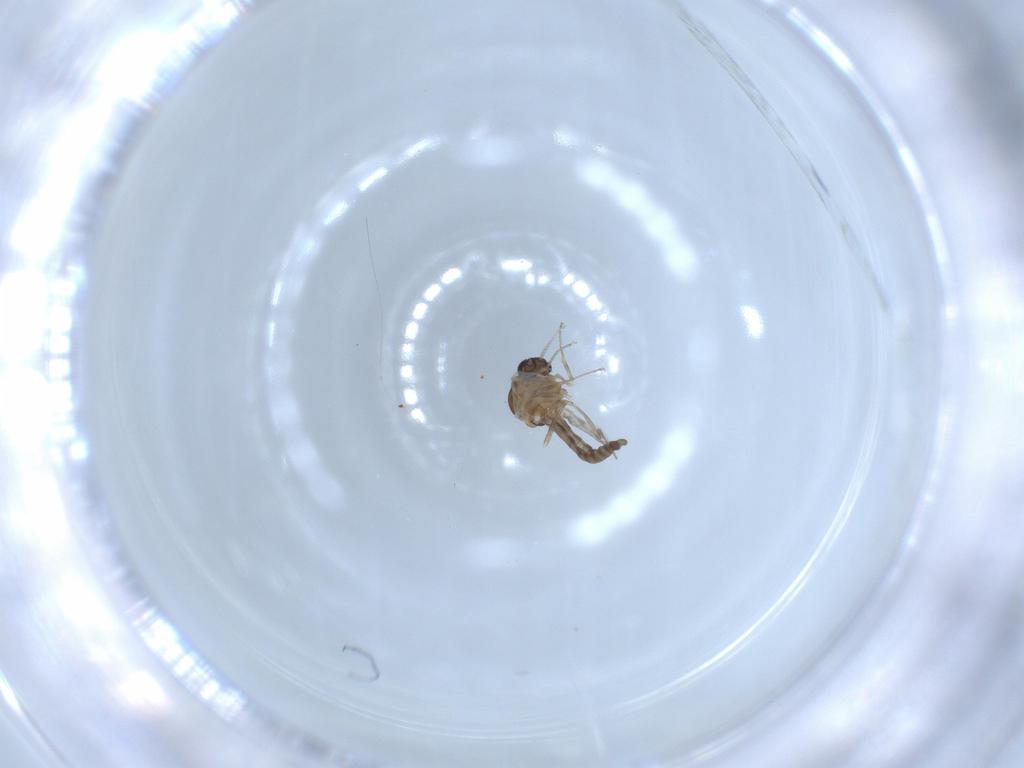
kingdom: Animalia
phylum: Arthropoda
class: Insecta
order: Diptera
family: Ceratopogonidae
